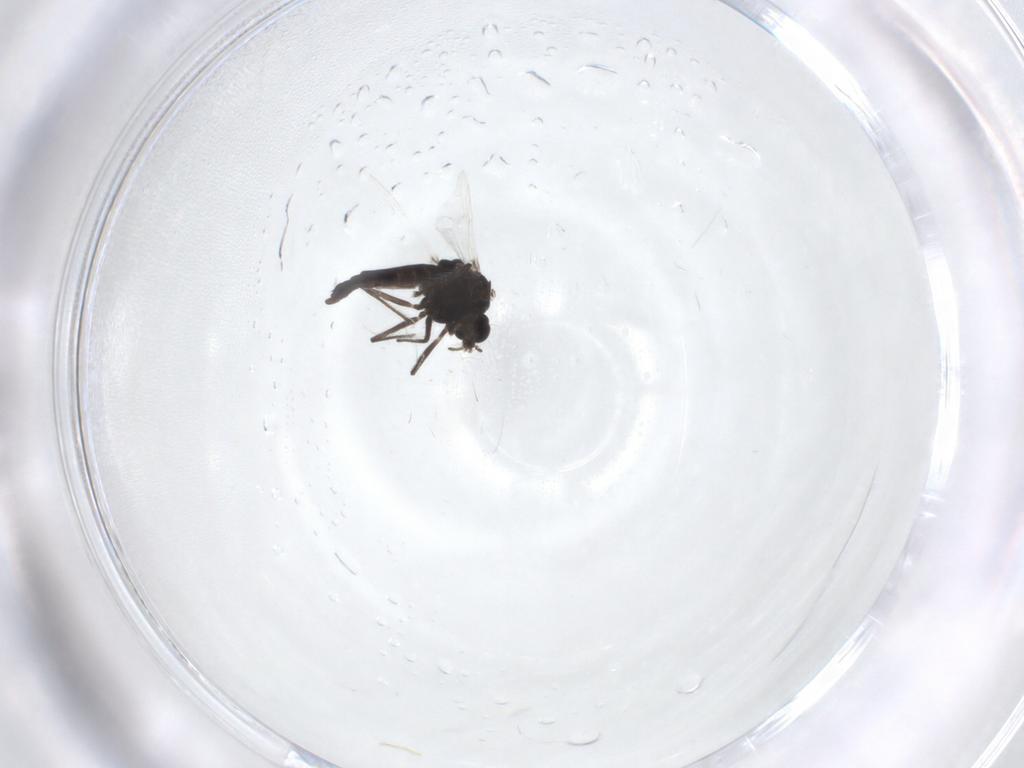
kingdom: Animalia
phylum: Arthropoda
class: Insecta
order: Diptera
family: Chironomidae
